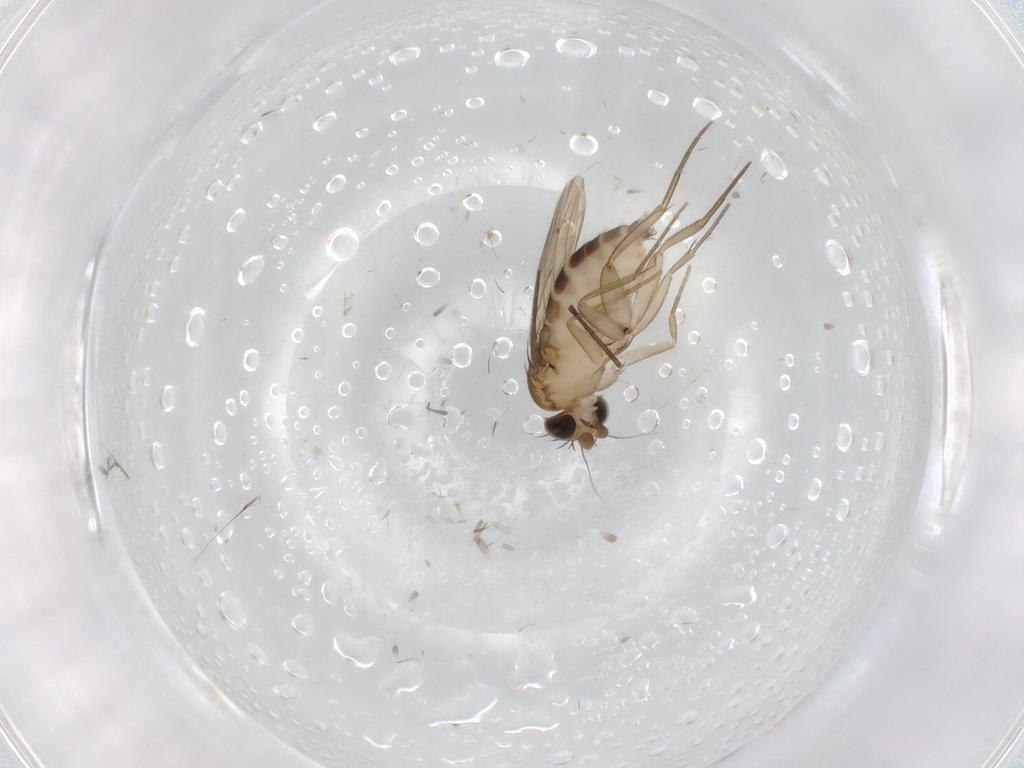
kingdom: Animalia
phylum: Arthropoda
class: Insecta
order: Diptera
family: Phoridae
